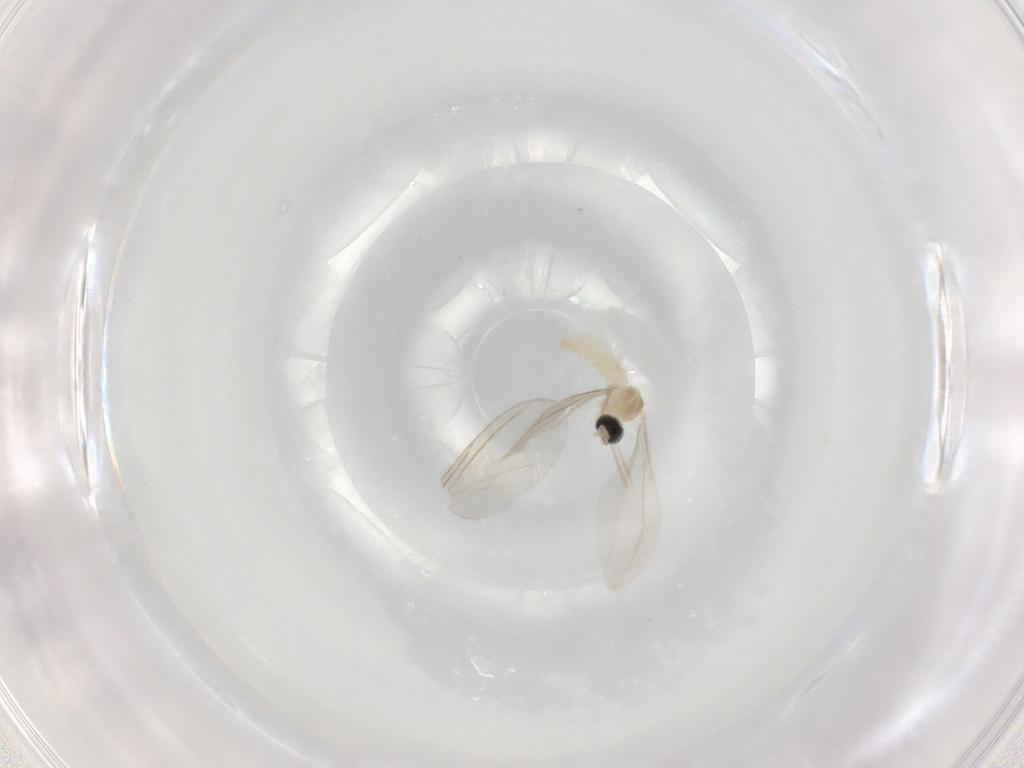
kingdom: Animalia
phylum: Arthropoda
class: Insecta
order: Diptera
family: Cecidomyiidae
